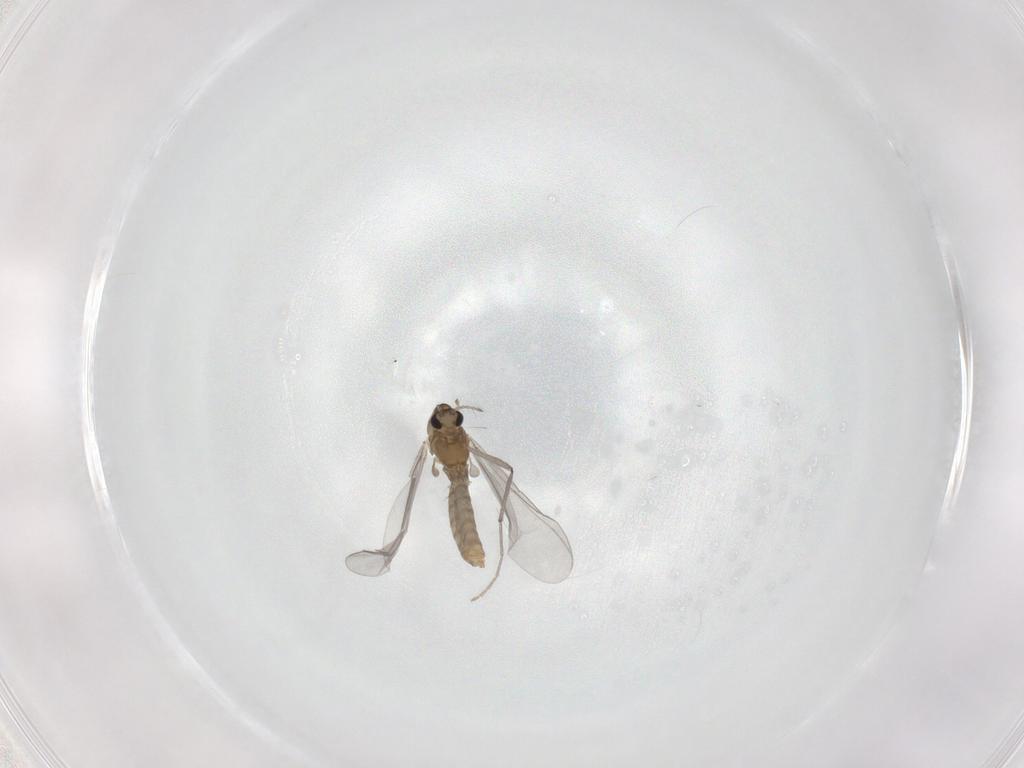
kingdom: Animalia
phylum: Arthropoda
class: Insecta
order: Diptera
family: Chironomidae
